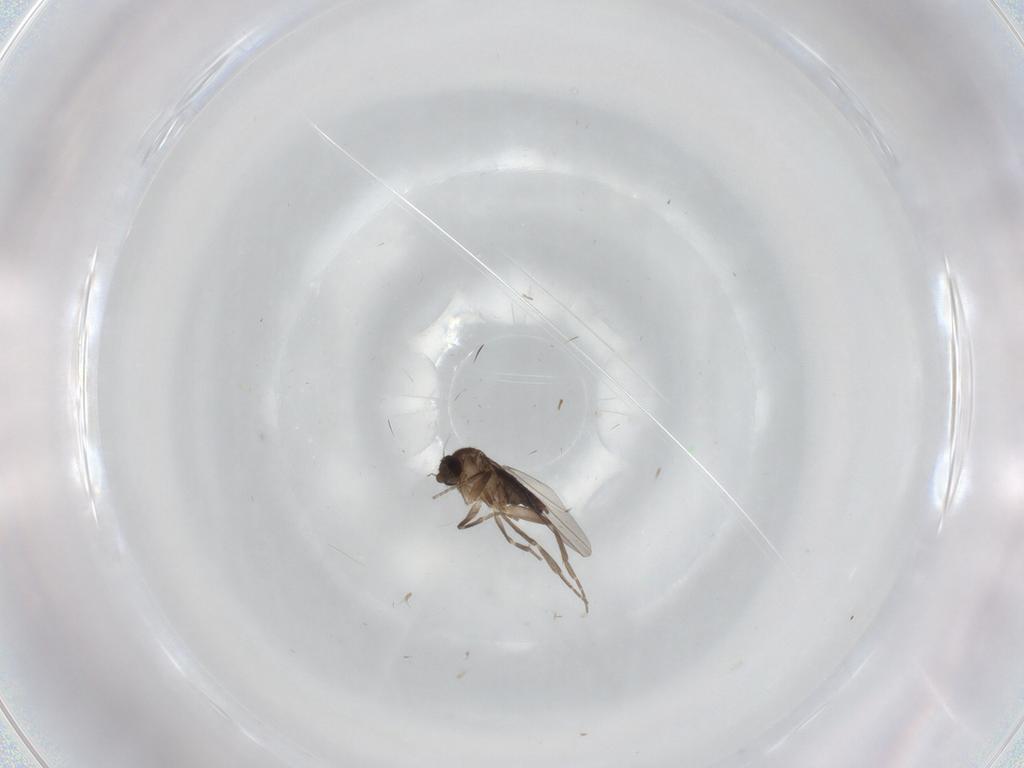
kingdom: Animalia
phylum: Arthropoda
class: Insecta
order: Diptera
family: Phoridae
